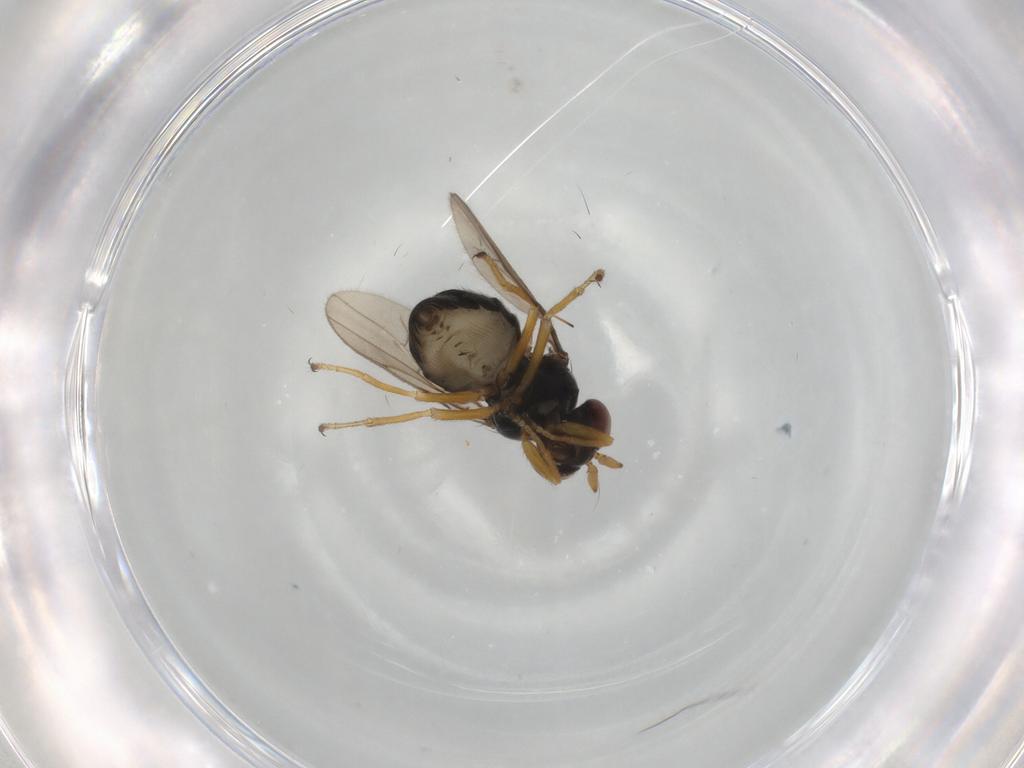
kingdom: Animalia
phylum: Arthropoda
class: Insecta
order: Diptera
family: Ephydridae
